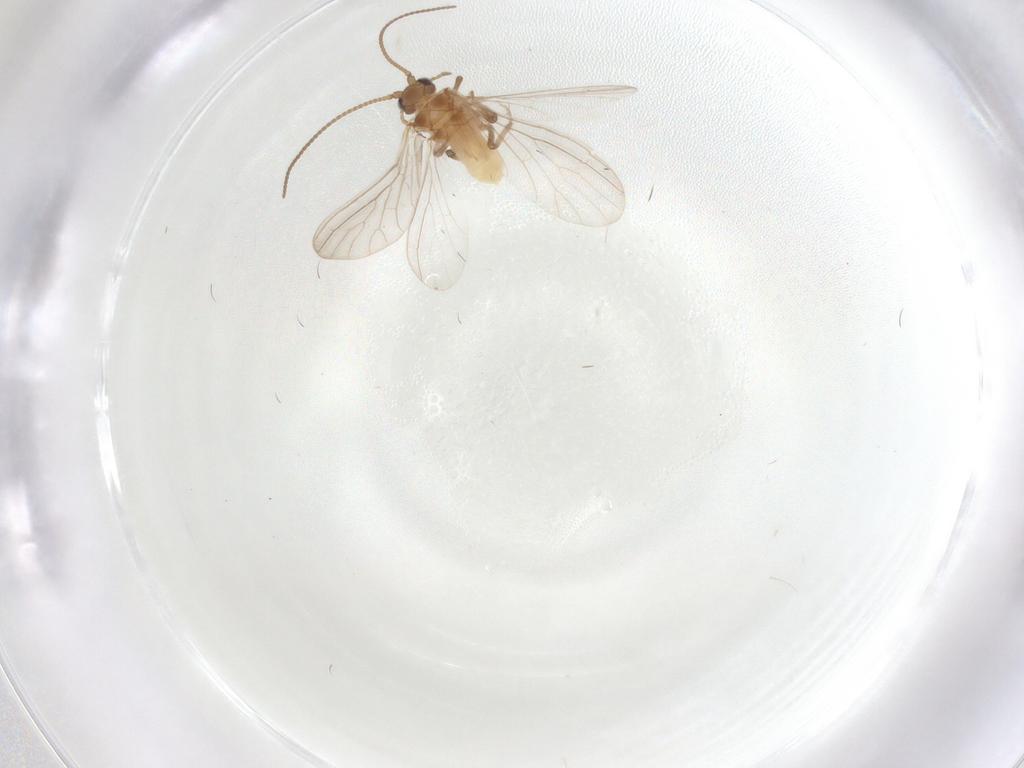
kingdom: Animalia
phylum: Arthropoda
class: Insecta
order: Neuroptera
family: Coniopterygidae
